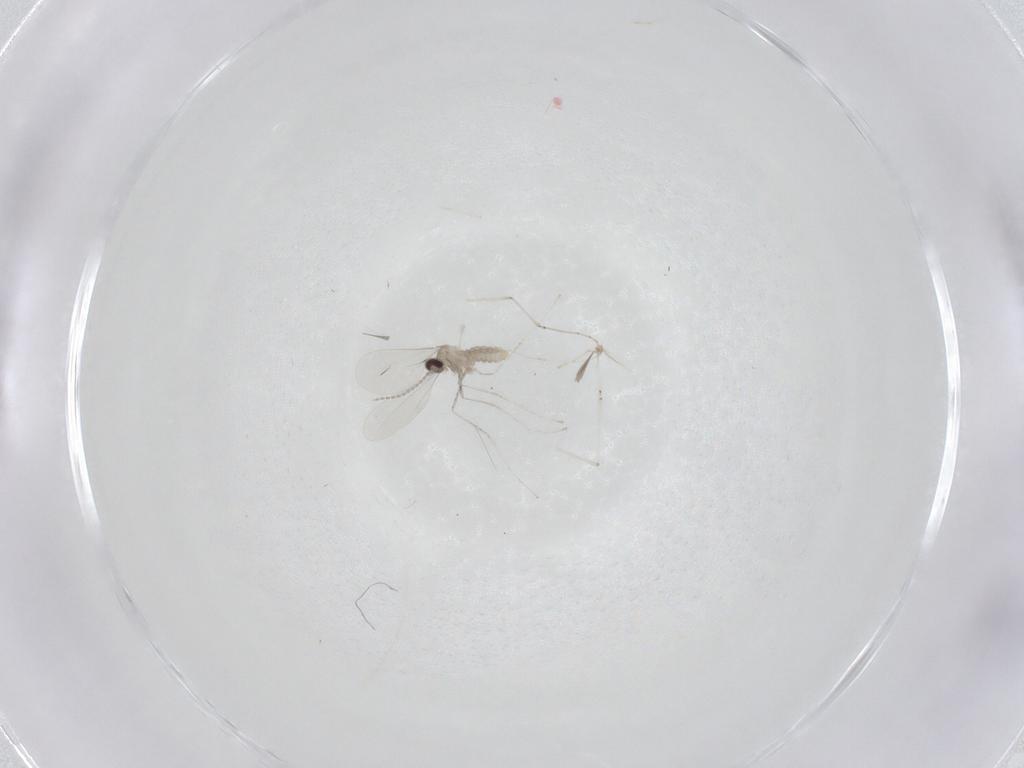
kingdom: Animalia
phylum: Arthropoda
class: Insecta
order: Diptera
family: Cecidomyiidae
